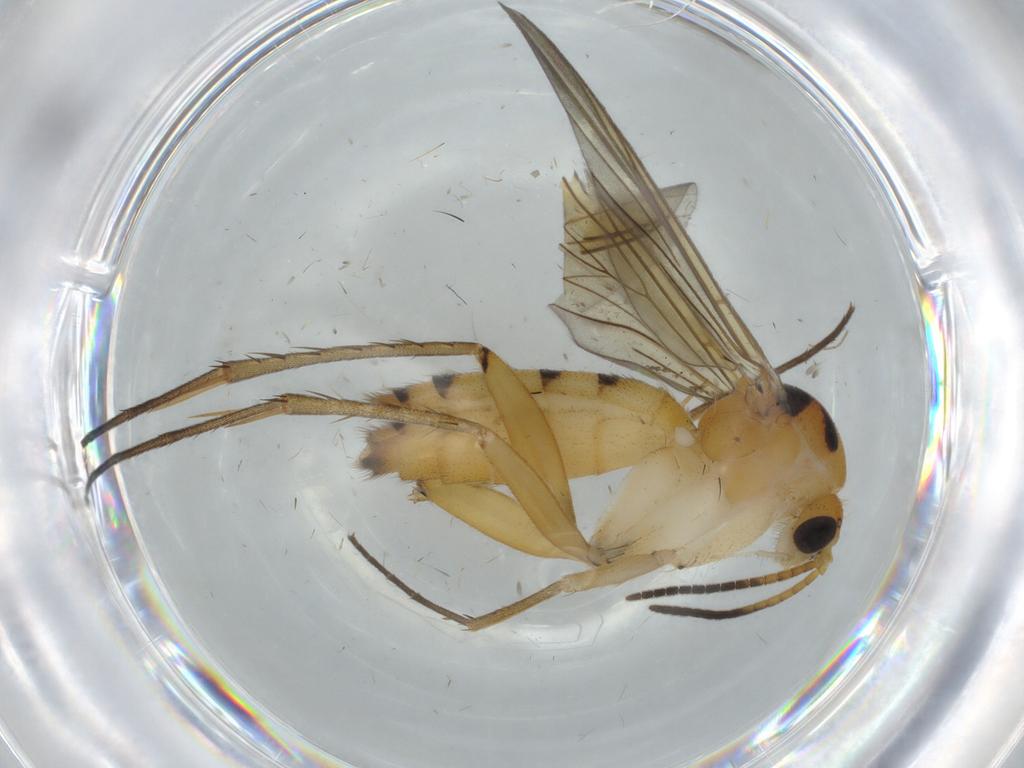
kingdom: Animalia
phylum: Arthropoda
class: Insecta
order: Diptera
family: Mycetophilidae
